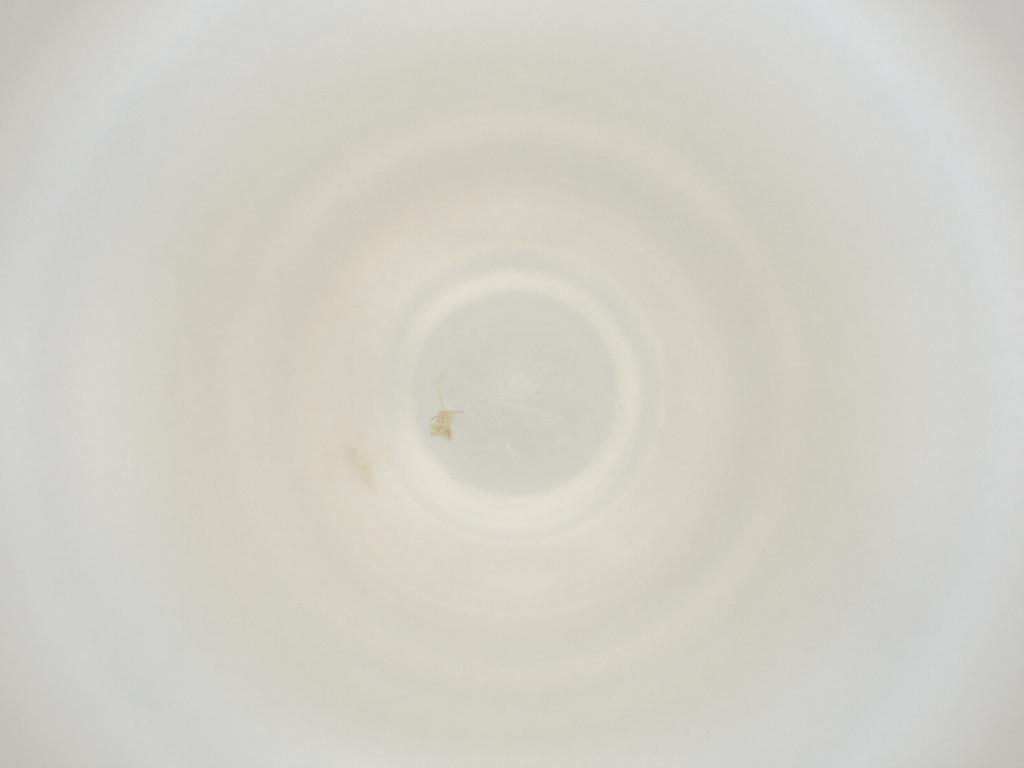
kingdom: Animalia
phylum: Arthropoda
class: Insecta
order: Diptera
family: Cecidomyiidae
